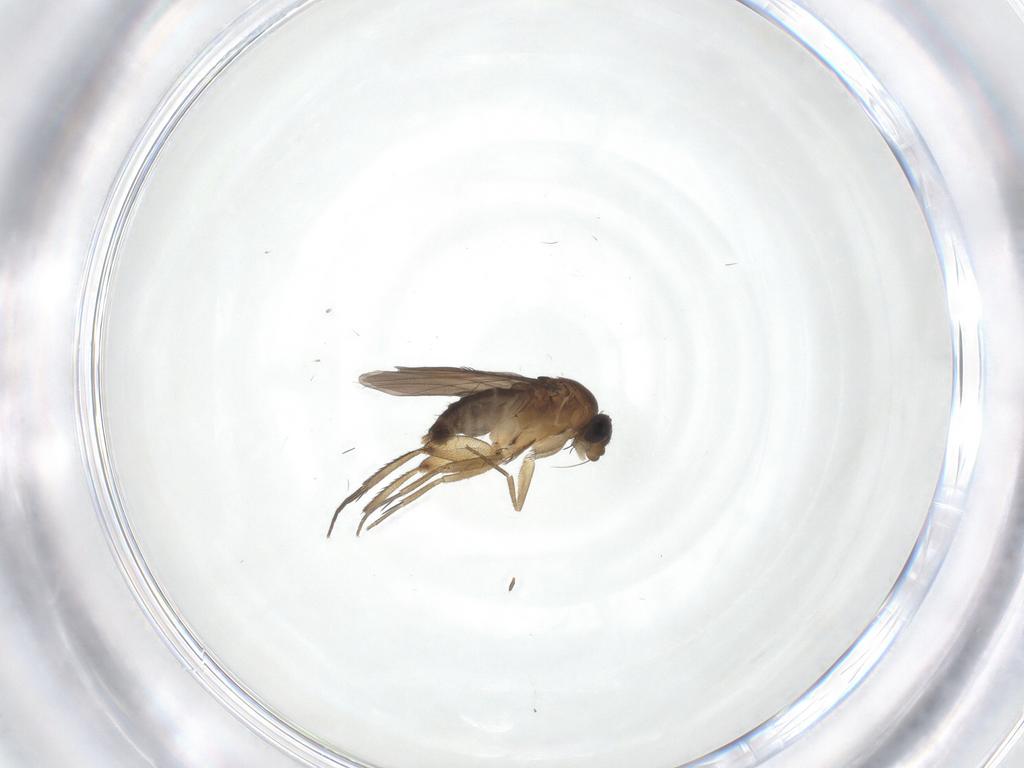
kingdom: Animalia
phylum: Arthropoda
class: Insecta
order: Diptera
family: Phoridae
